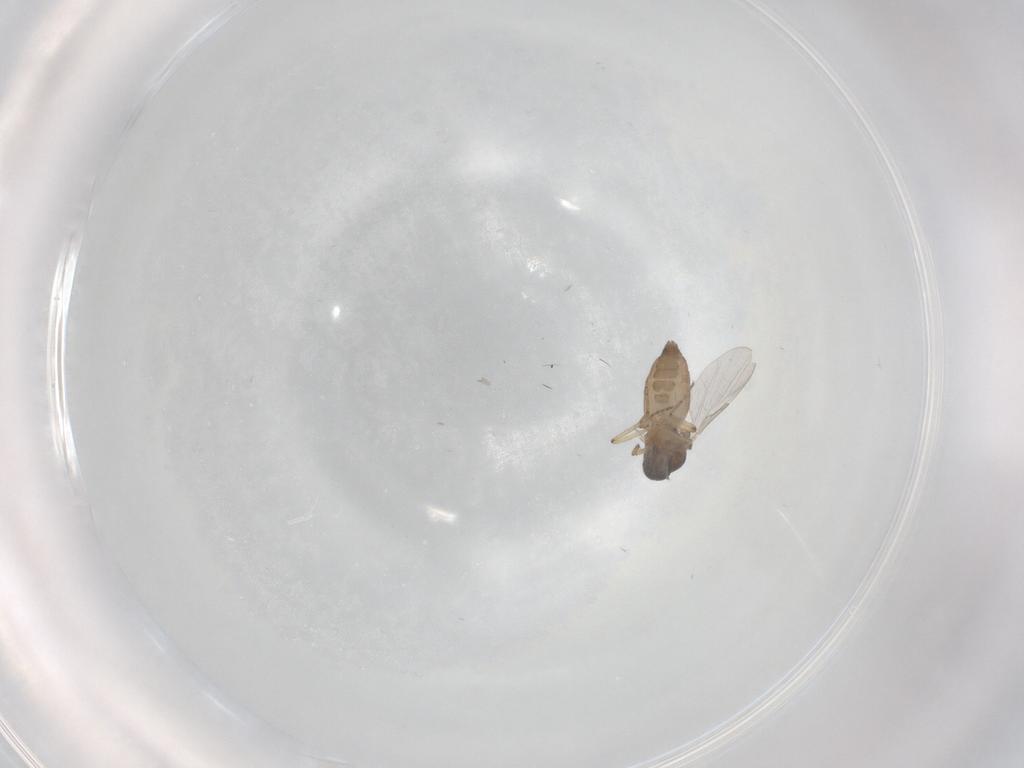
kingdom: Animalia
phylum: Arthropoda
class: Insecta
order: Diptera
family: Ceratopogonidae
